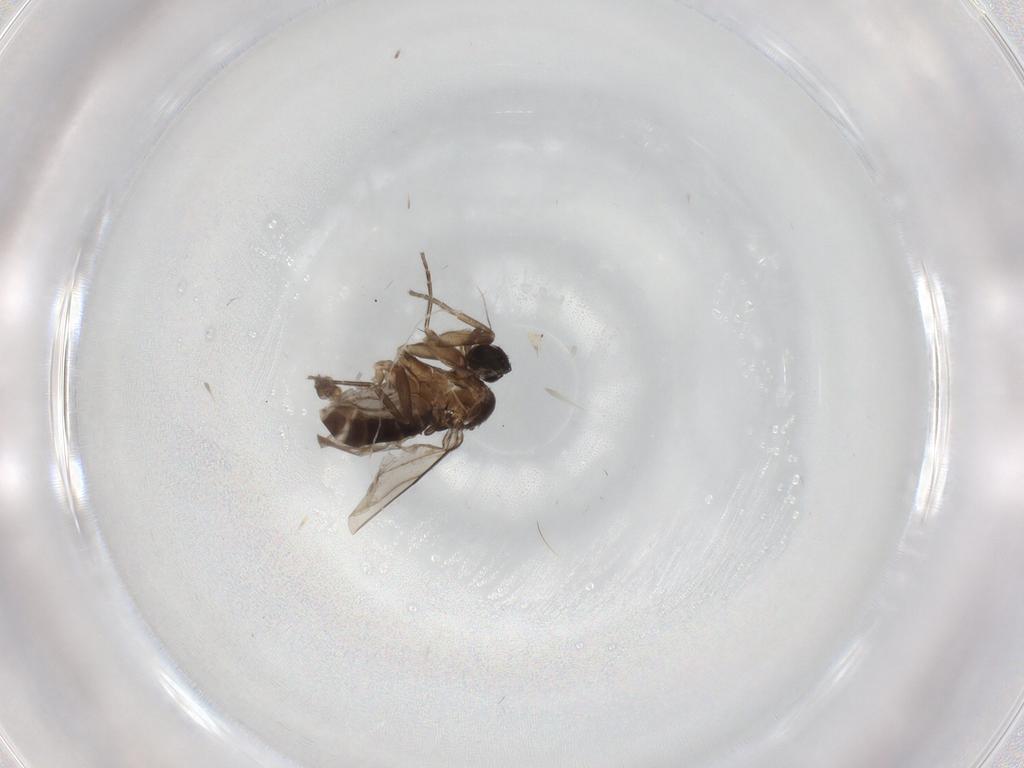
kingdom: Animalia
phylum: Arthropoda
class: Insecta
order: Diptera
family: Phoridae
